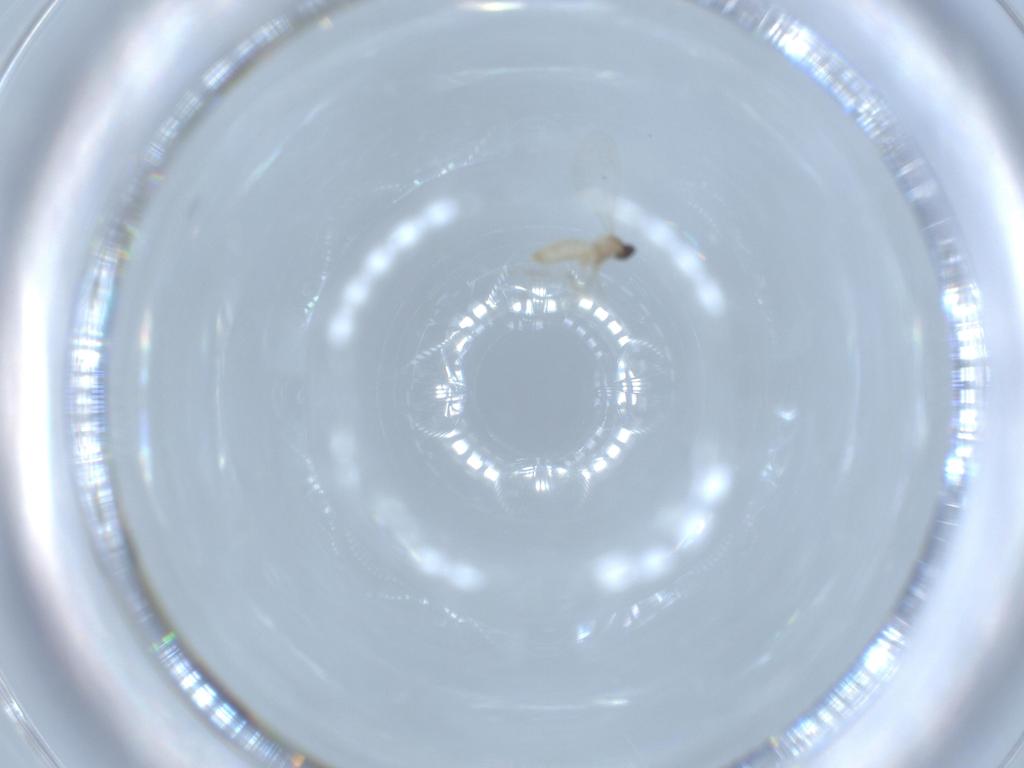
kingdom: Animalia
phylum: Arthropoda
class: Insecta
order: Diptera
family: Cecidomyiidae
